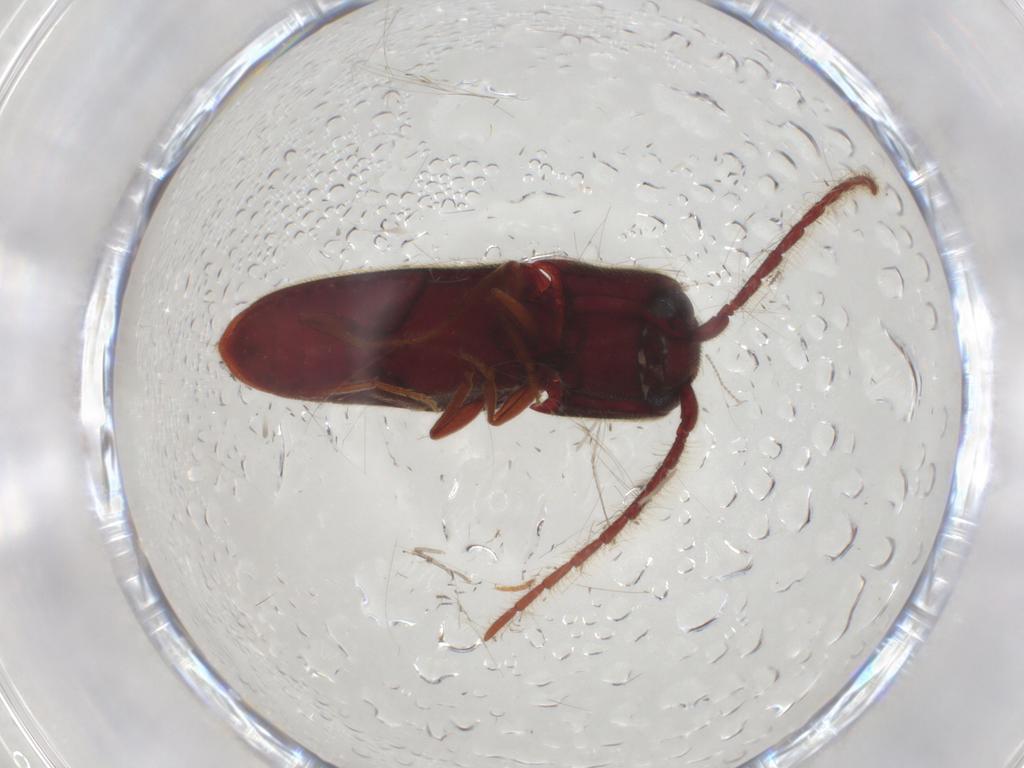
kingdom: Animalia
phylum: Arthropoda
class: Insecta
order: Coleoptera
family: Eucnemidae
